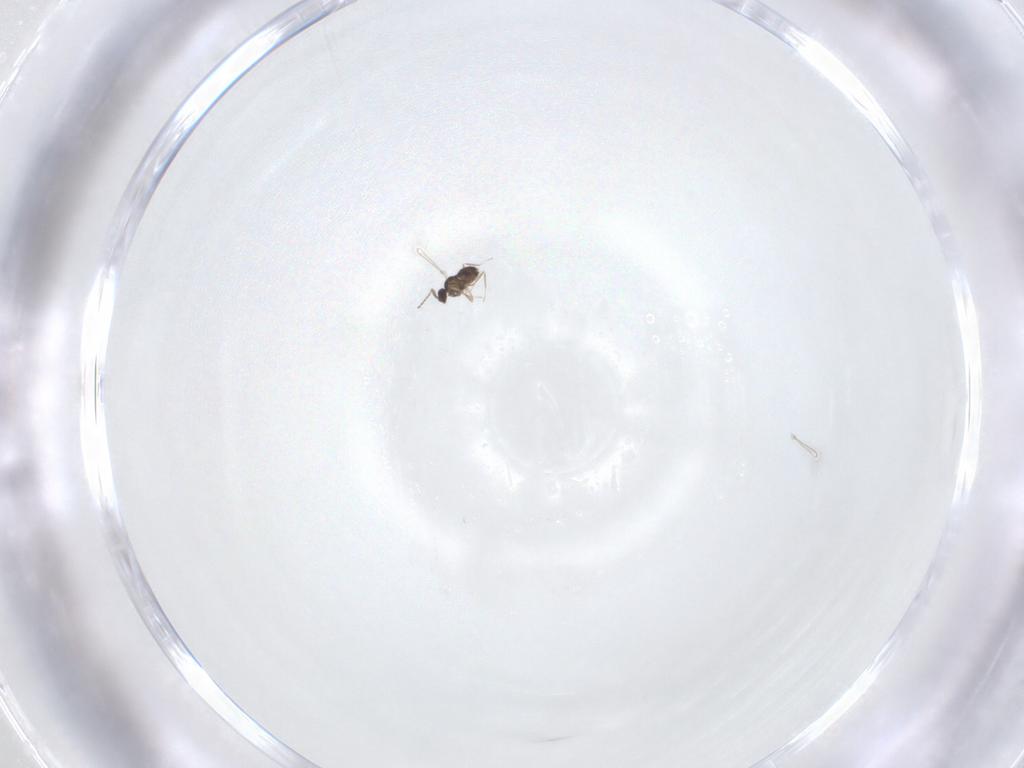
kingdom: Animalia
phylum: Arthropoda
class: Insecta
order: Hymenoptera
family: Mymaridae
